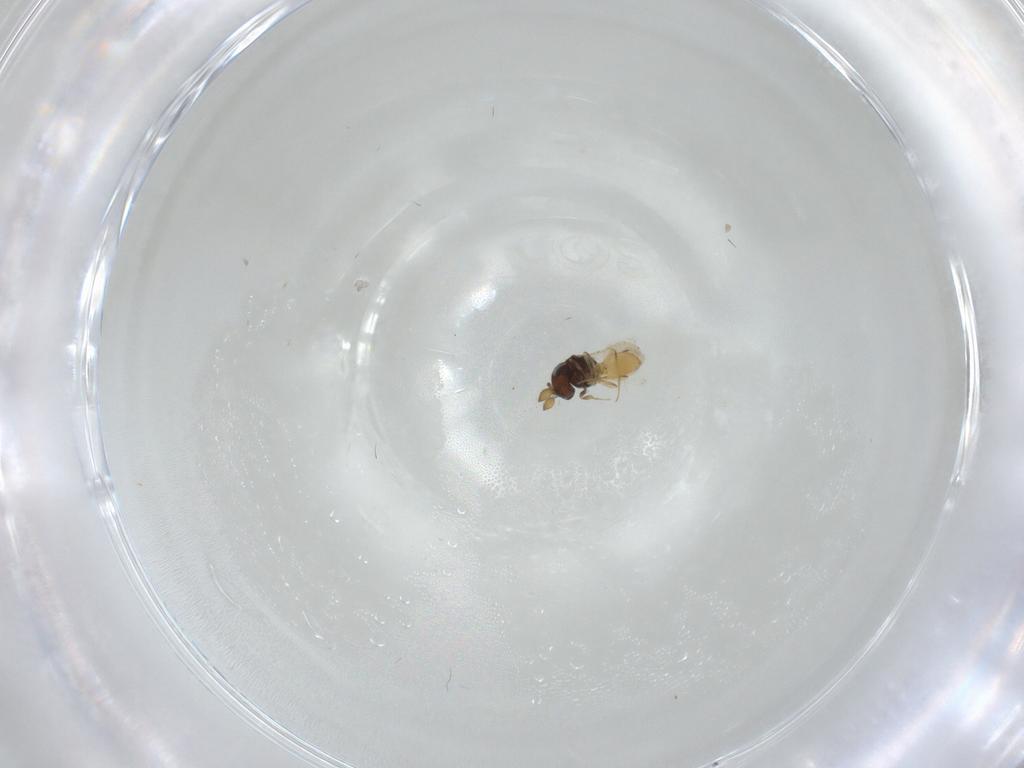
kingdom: Animalia
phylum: Arthropoda
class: Insecta
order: Hymenoptera
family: Scelionidae
